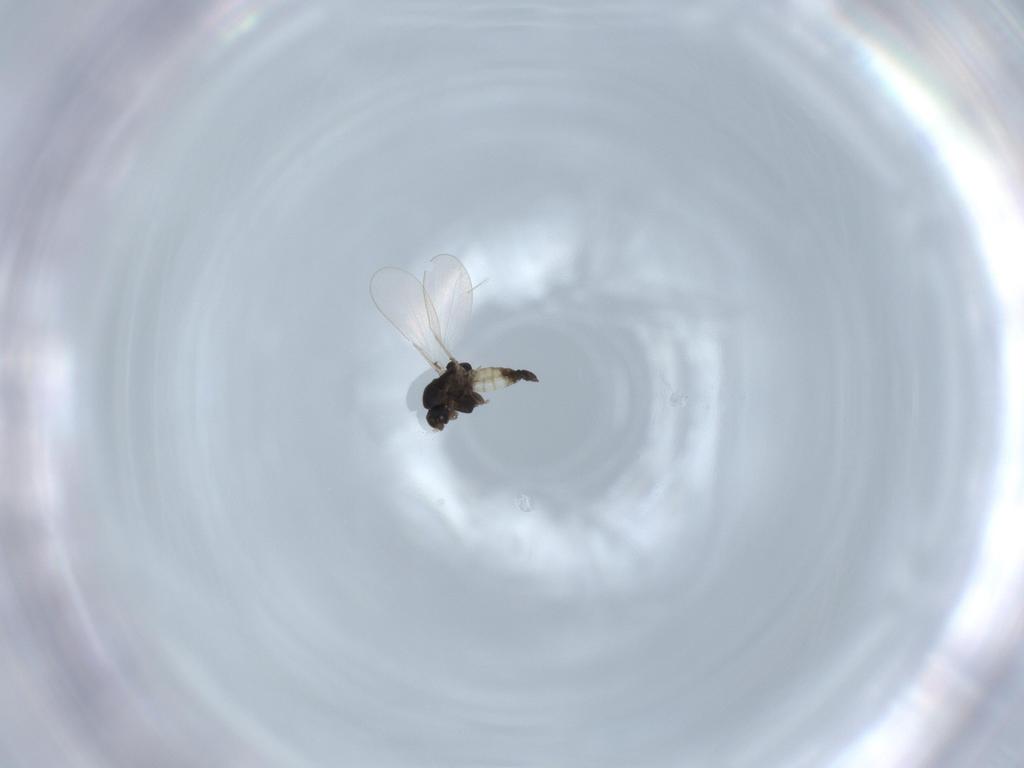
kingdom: Animalia
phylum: Arthropoda
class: Insecta
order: Diptera
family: Chironomidae
